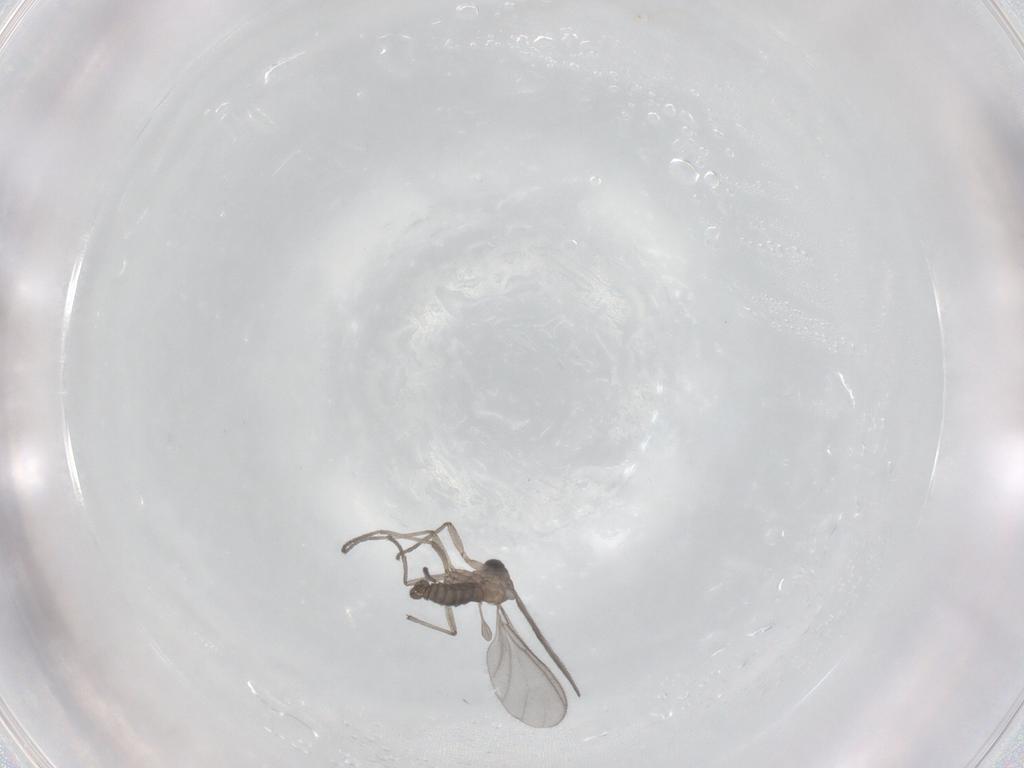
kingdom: Animalia
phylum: Arthropoda
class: Insecta
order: Diptera
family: Sciaridae
